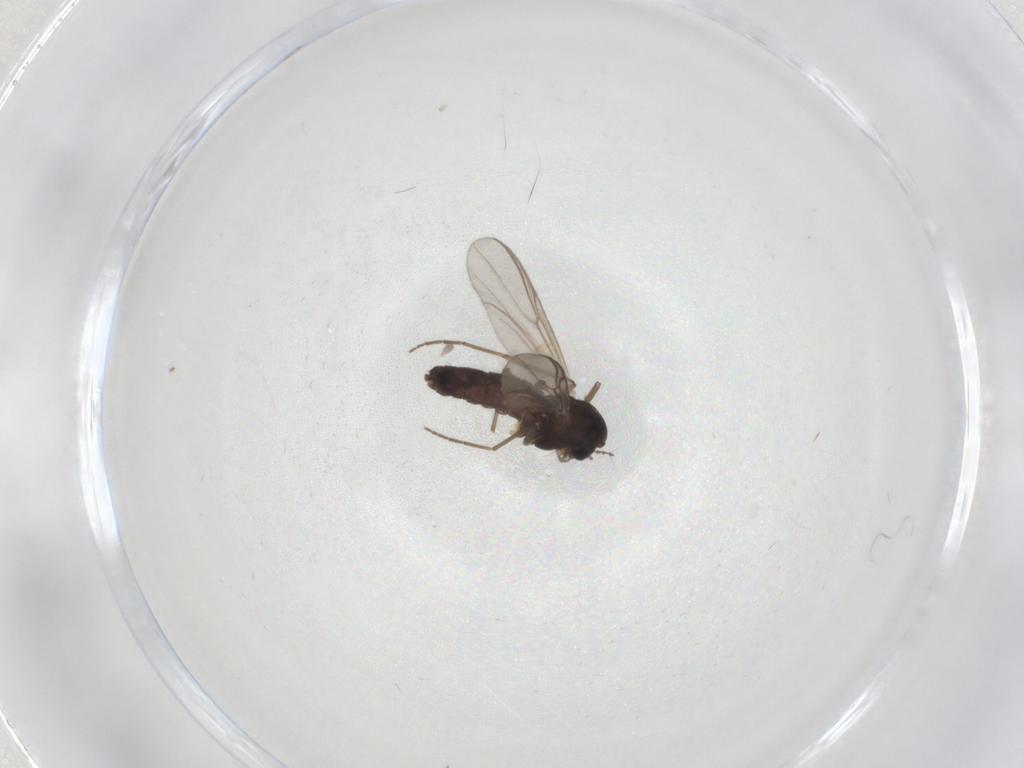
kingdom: Animalia
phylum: Arthropoda
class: Insecta
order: Diptera
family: Chironomidae
